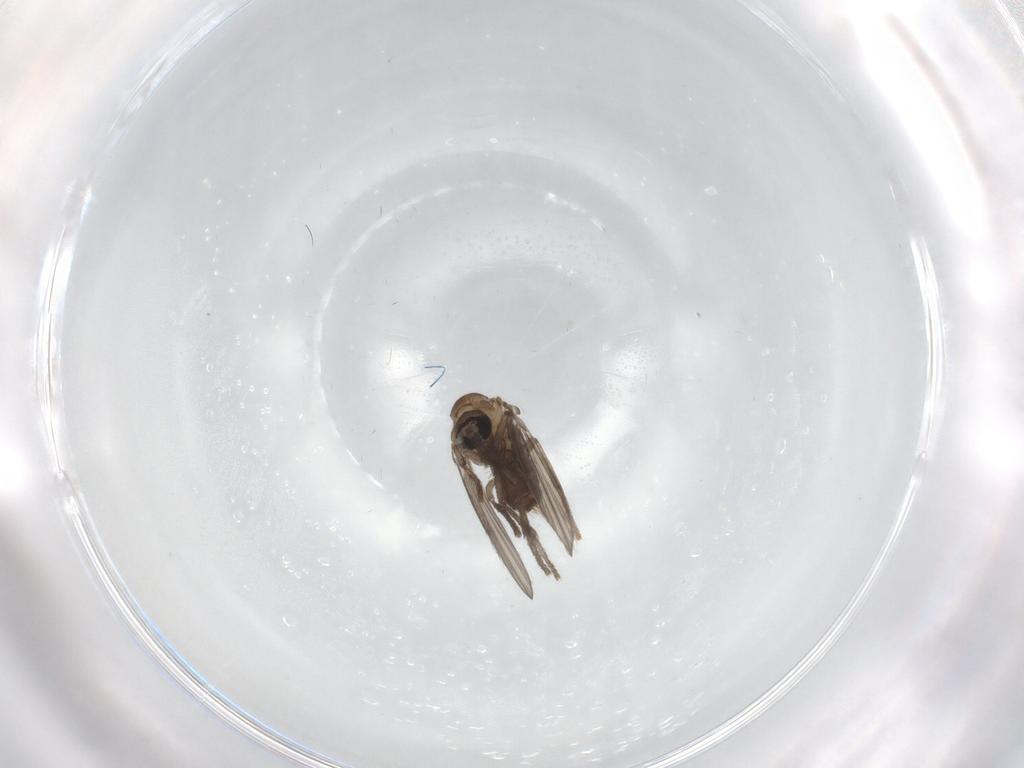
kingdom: Animalia
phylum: Arthropoda
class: Insecta
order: Diptera
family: Psychodidae
